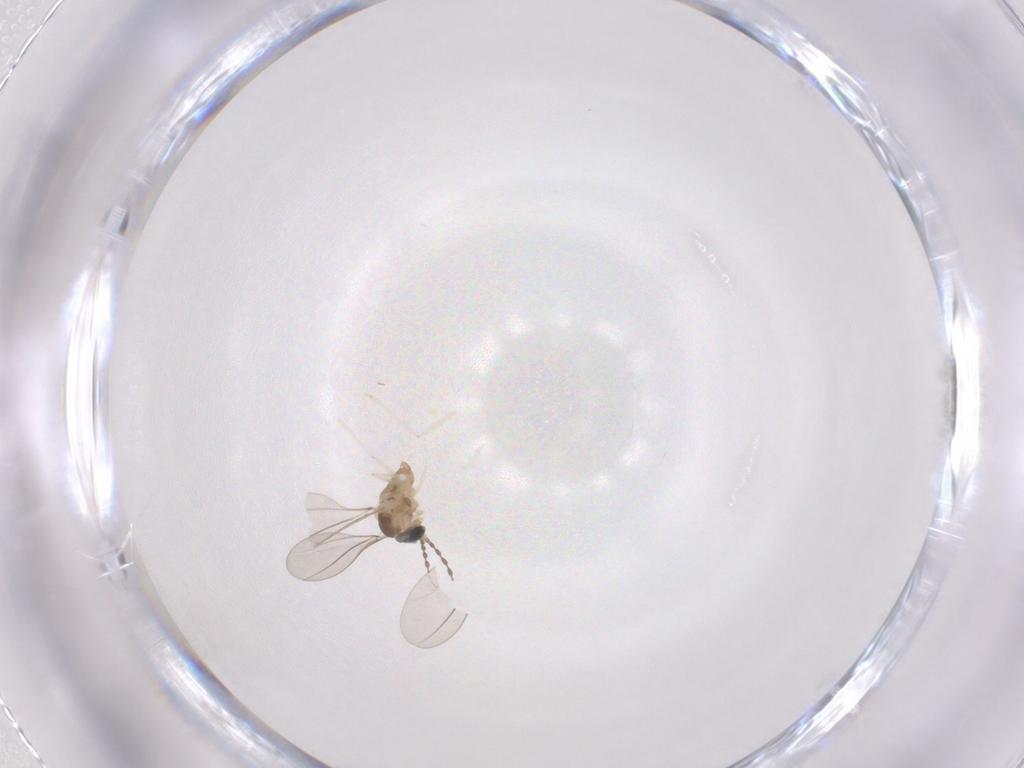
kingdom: Animalia
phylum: Arthropoda
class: Insecta
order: Diptera
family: Cecidomyiidae
